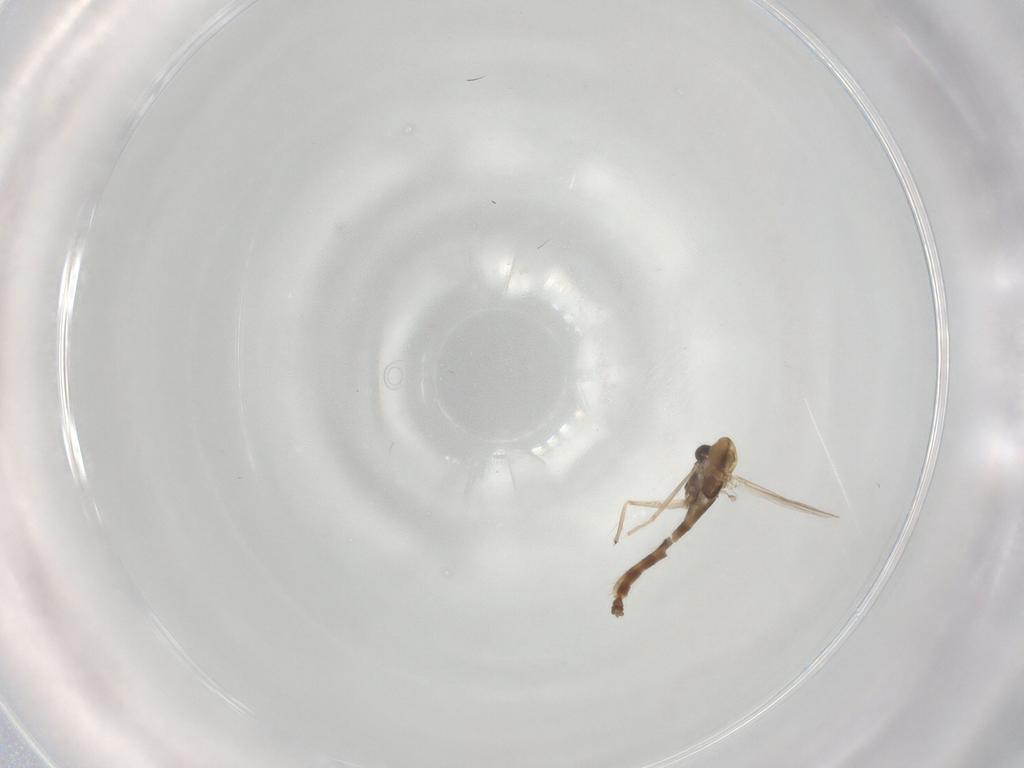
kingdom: Animalia
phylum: Arthropoda
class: Insecta
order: Diptera
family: Chironomidae
